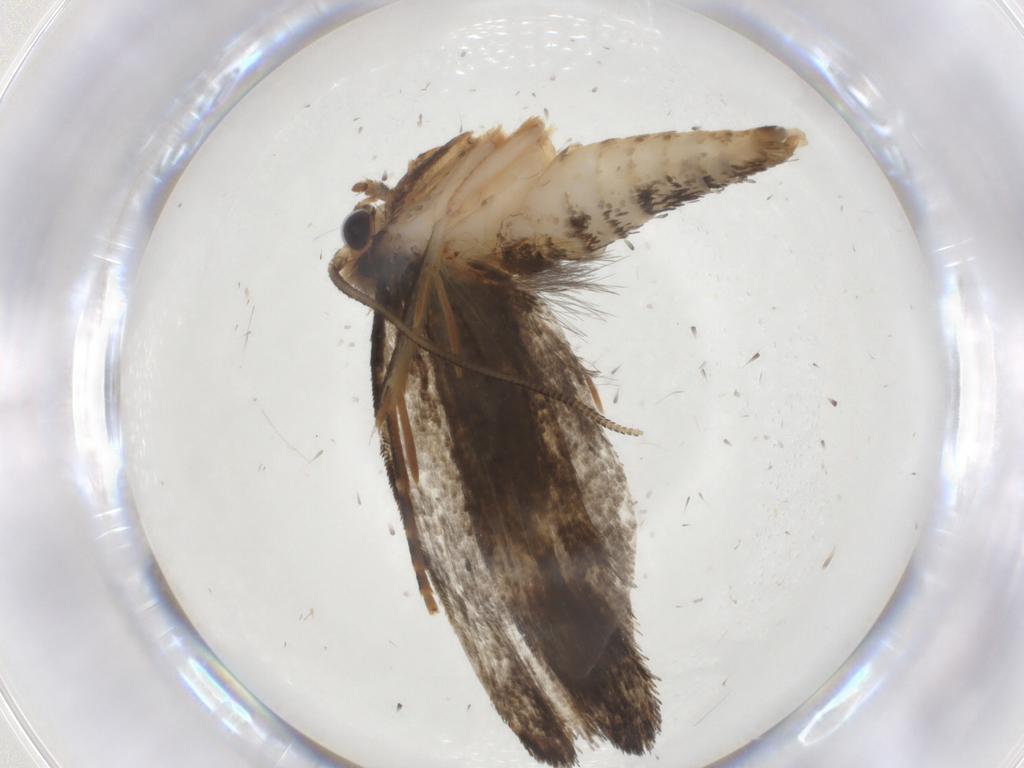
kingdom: Animalia
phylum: Arthropoda
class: Insecta
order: Lepidoptera
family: Tineidae
